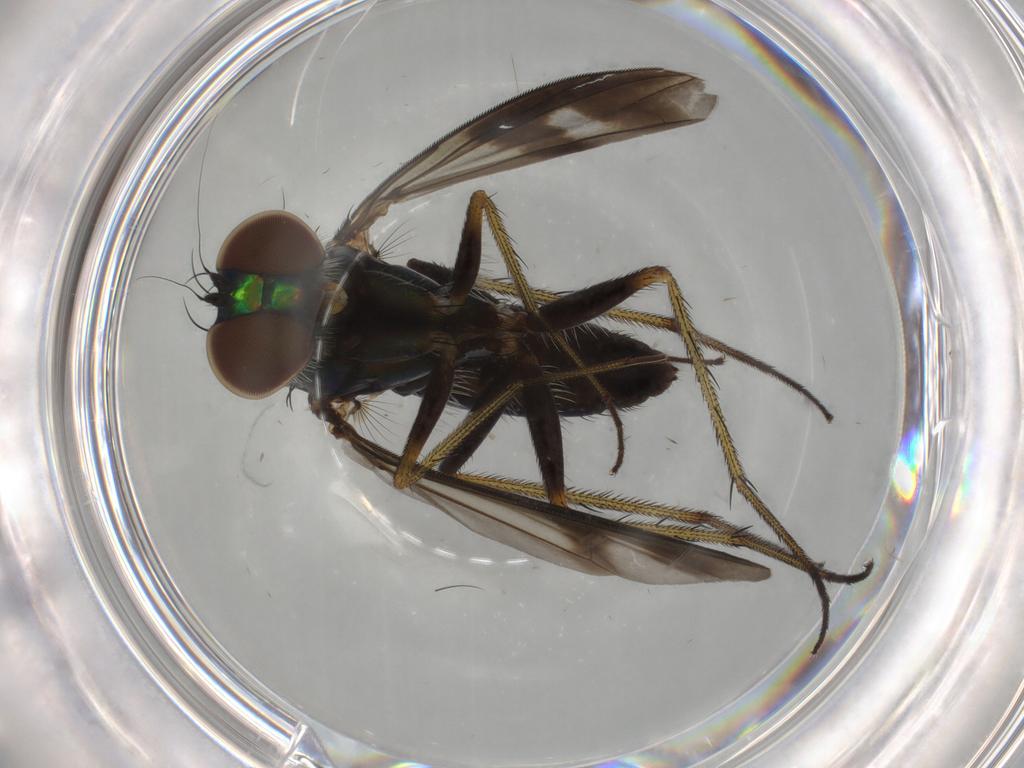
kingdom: Animalia
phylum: Arthropoda
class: Insecta
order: Diptera
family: Dolichopodidae
